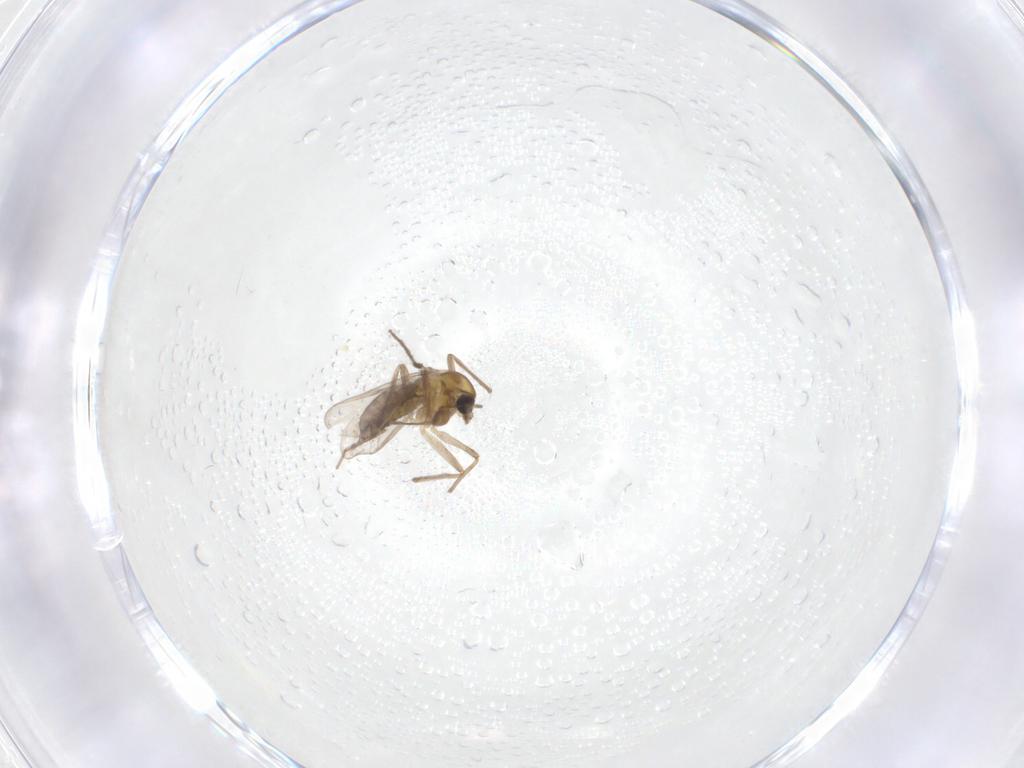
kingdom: Animalia
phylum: Arthropoda
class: Insecta
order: Diptera
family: Chironomidae
